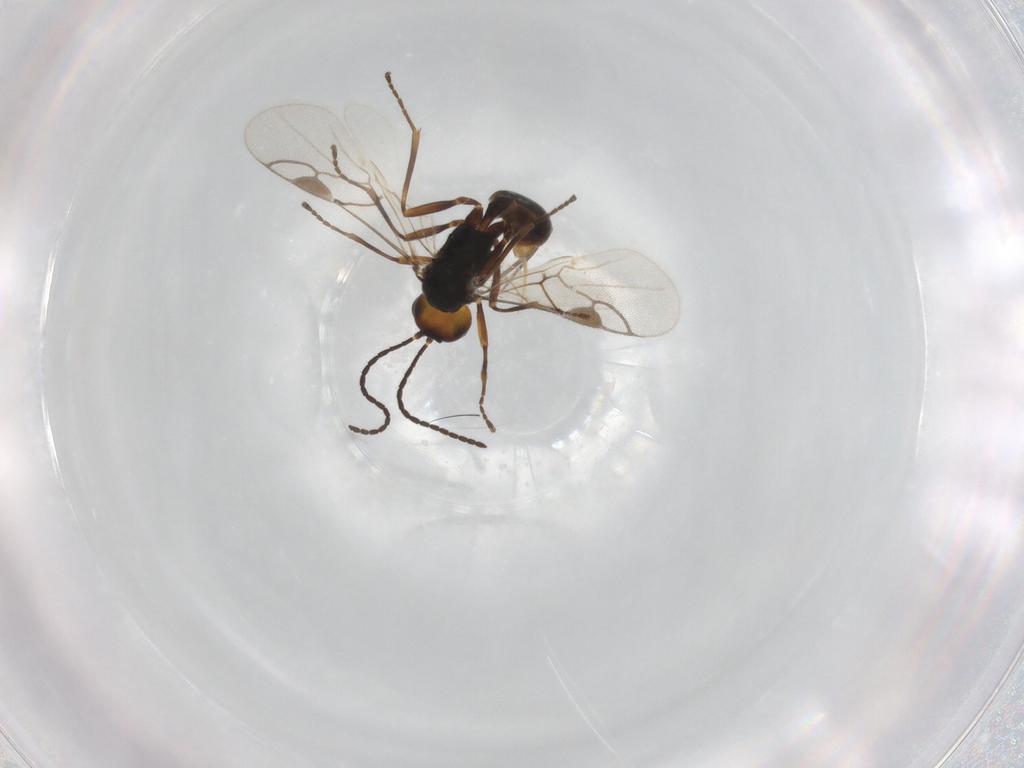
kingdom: Animalia
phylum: Arthropoda
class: Insecta
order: Hymenoptera
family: Braconidae
